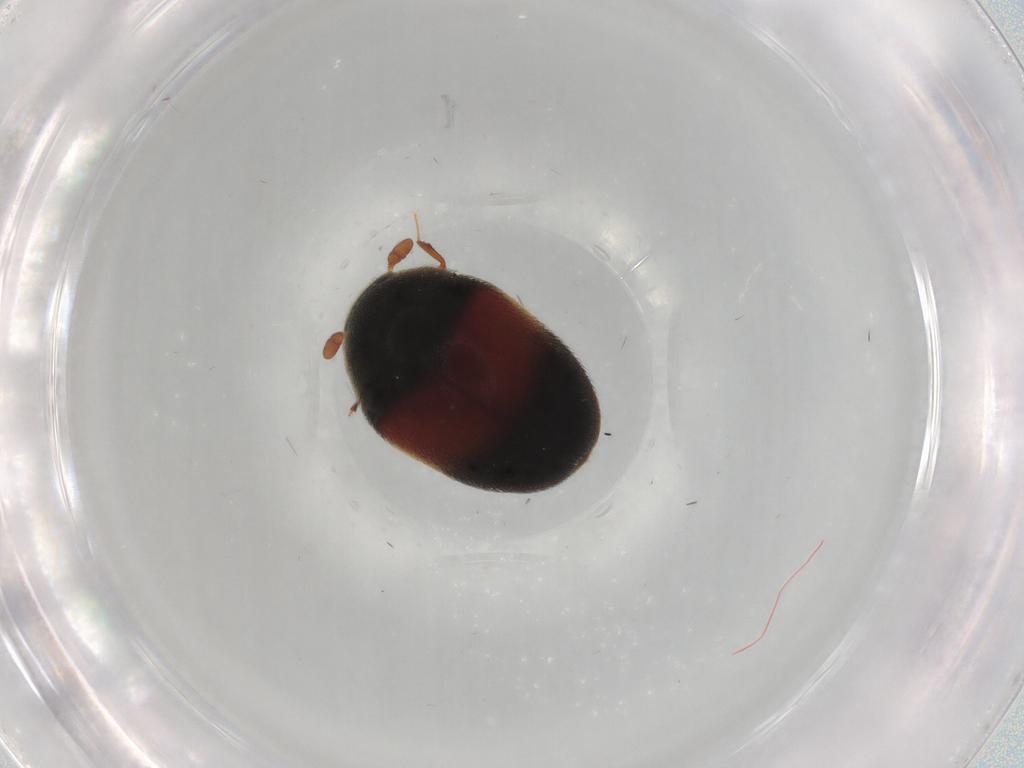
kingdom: Animalia
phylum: Arthropoda
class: Insecta
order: Coleoptera
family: Dermestidae
